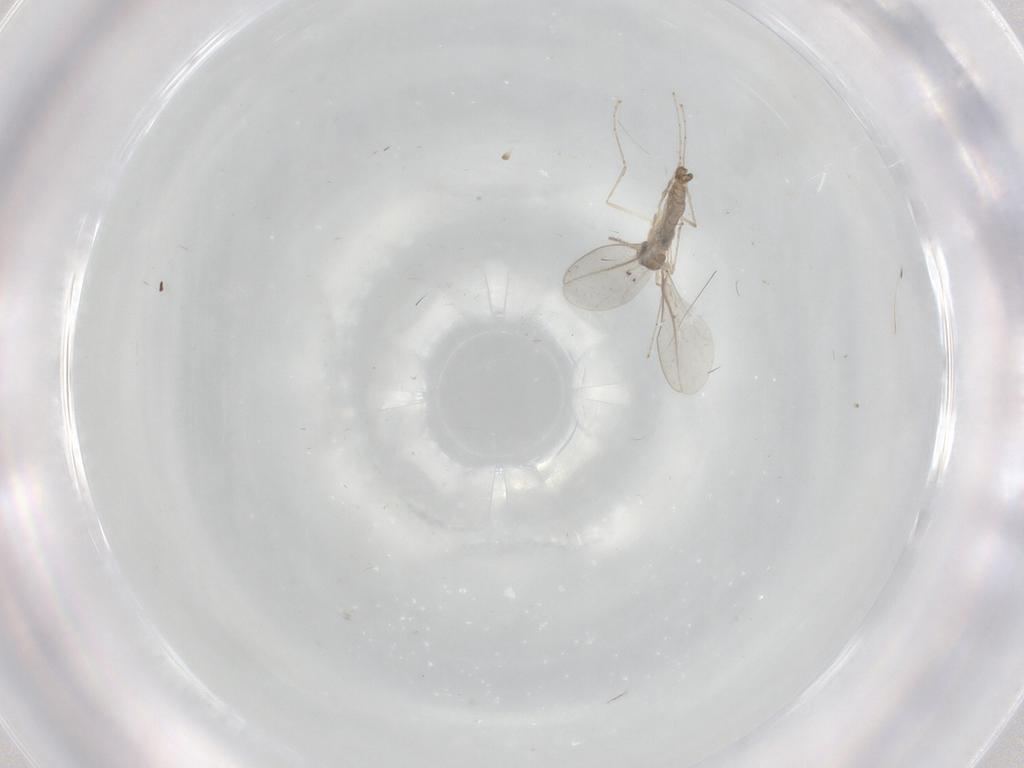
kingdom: Animalia
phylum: Arthropoda
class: Insecta
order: Diptera
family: Cecidomyiidae
